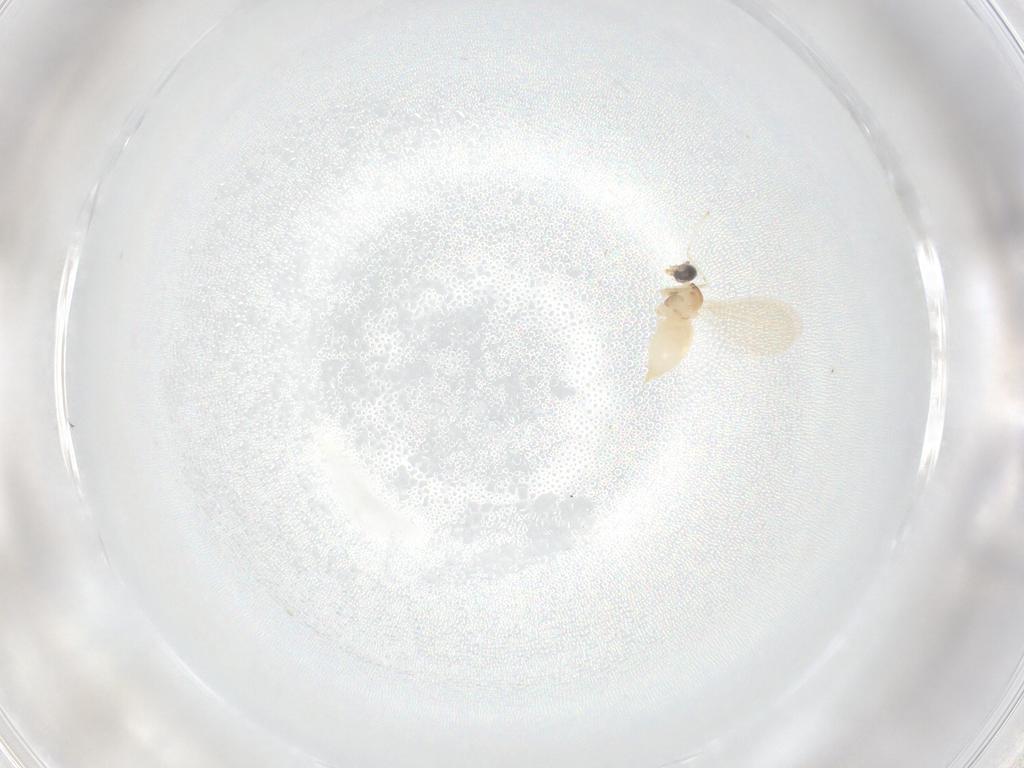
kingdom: Animalia
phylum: Arthropoda
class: Insecta
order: Diptera
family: Cecidomyiidae
